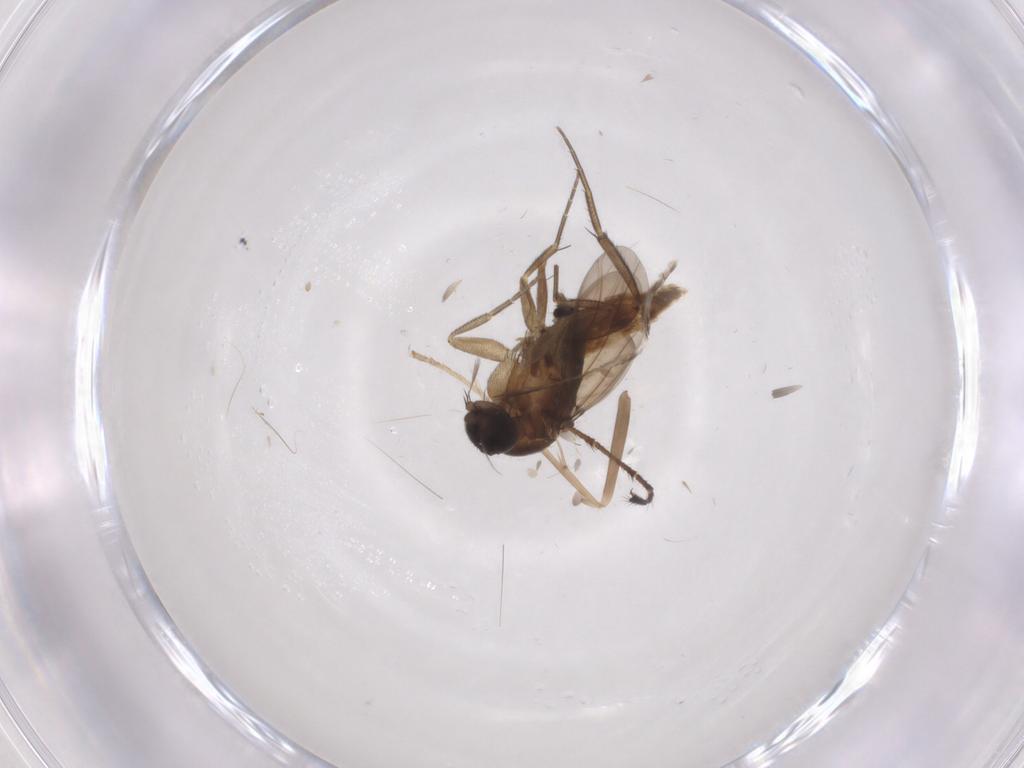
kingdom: Animalia
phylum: Arthropoda
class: Insecta
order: Diptera
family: Phoridae
